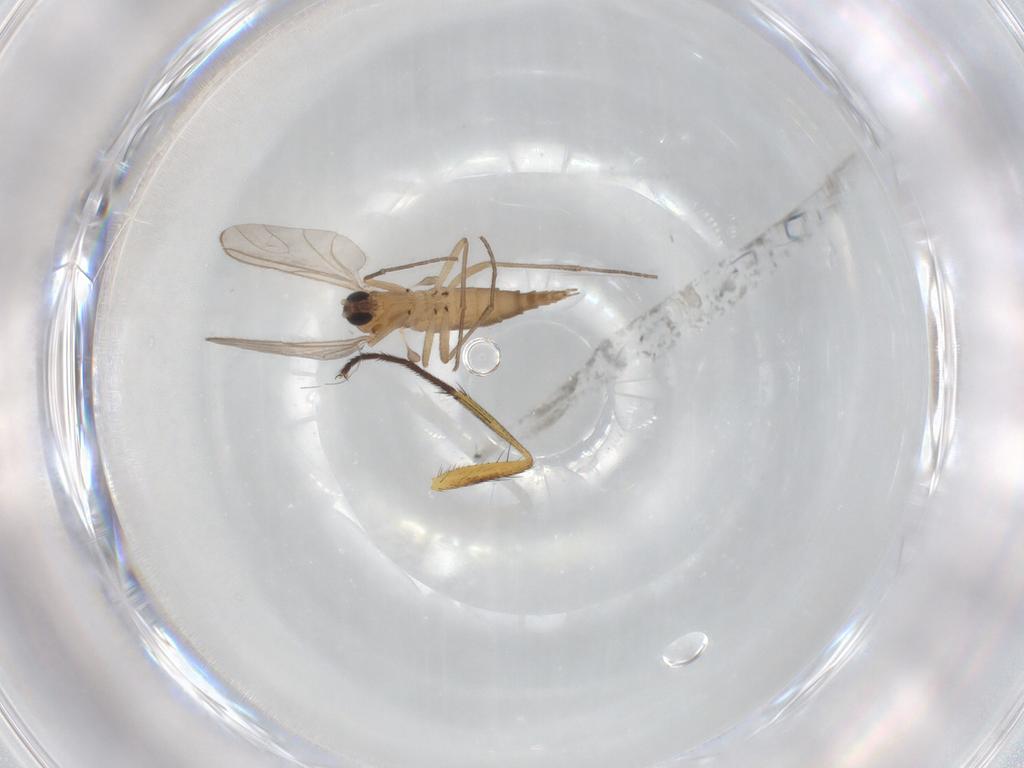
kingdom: Animalia
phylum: Arthropoda
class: Insecta
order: Diptera
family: Sciaridae
